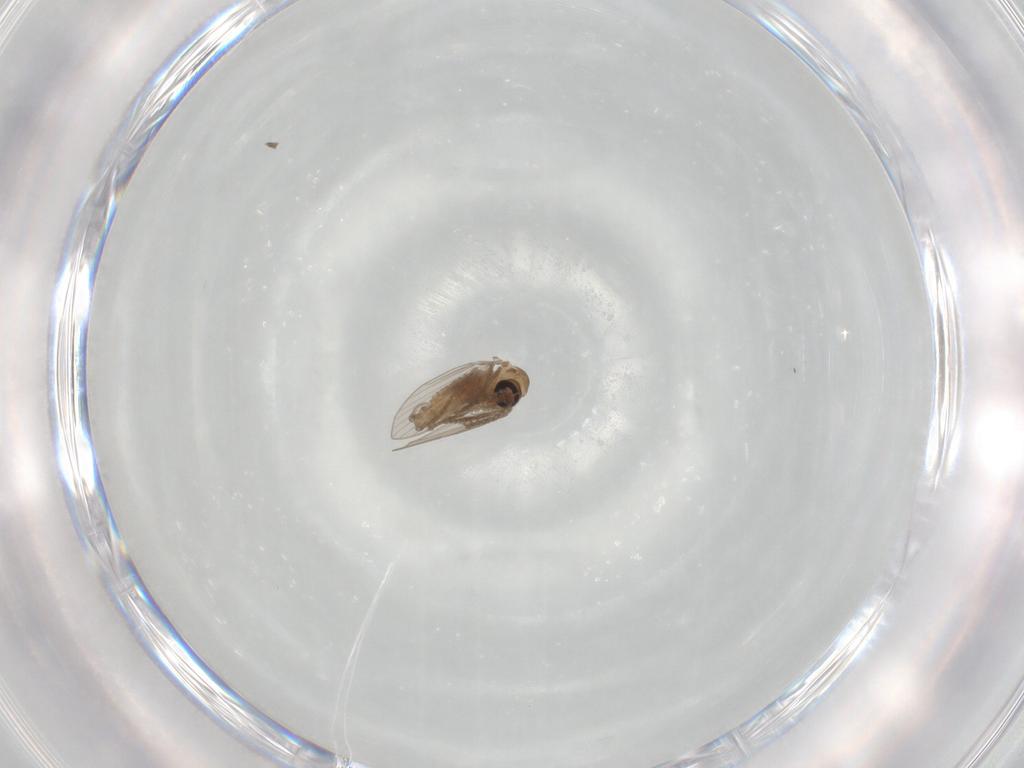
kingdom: Animalia
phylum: Arthropoda
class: Insecta
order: Diptera
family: Psychodidae
